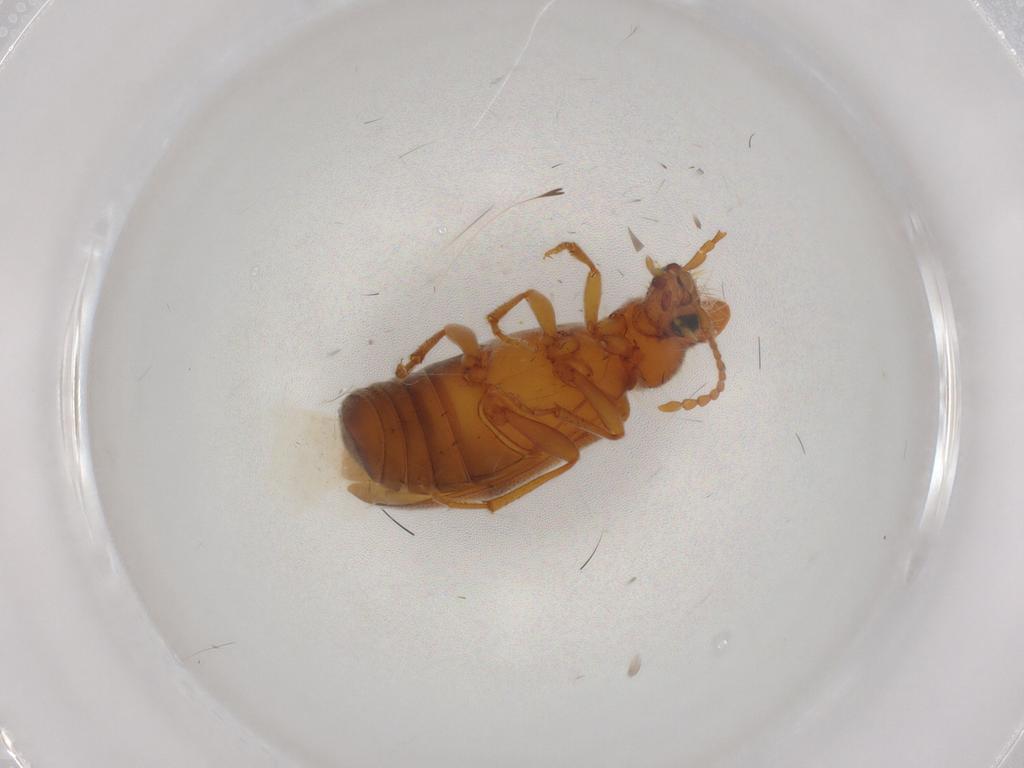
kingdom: Animalia
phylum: Arthropoda
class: Insecta
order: Coleoptera
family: Anthicidae
